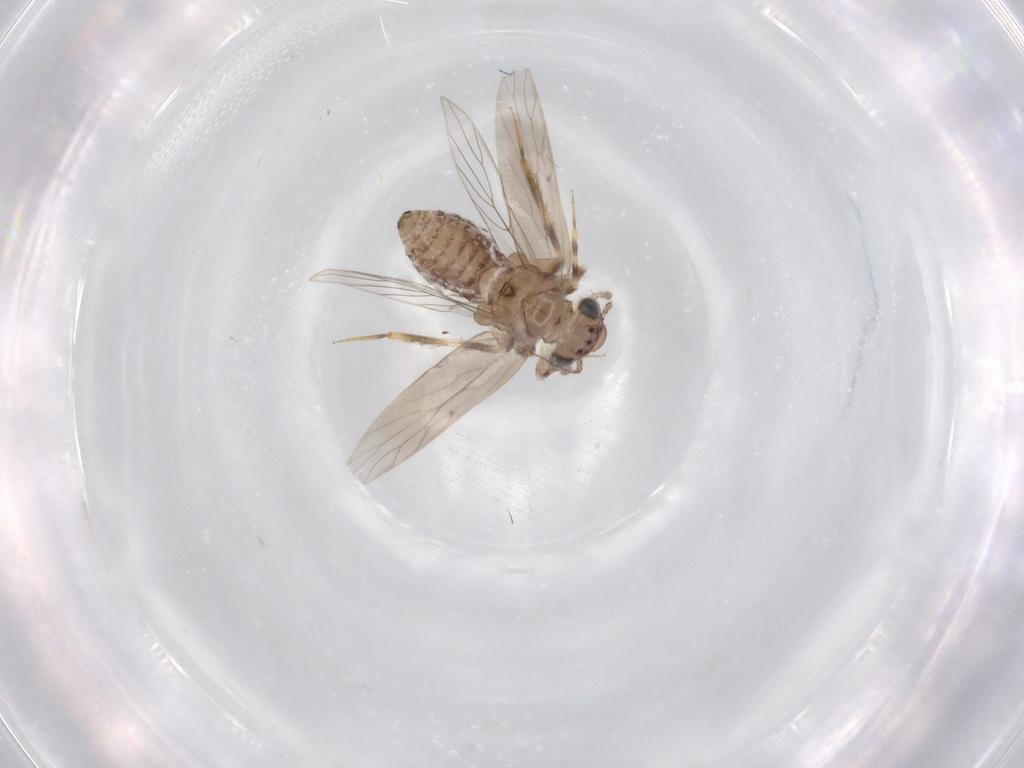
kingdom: Animalia
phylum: Arthropoda
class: Insecta
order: Psocodea
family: Lepidopsocidae
